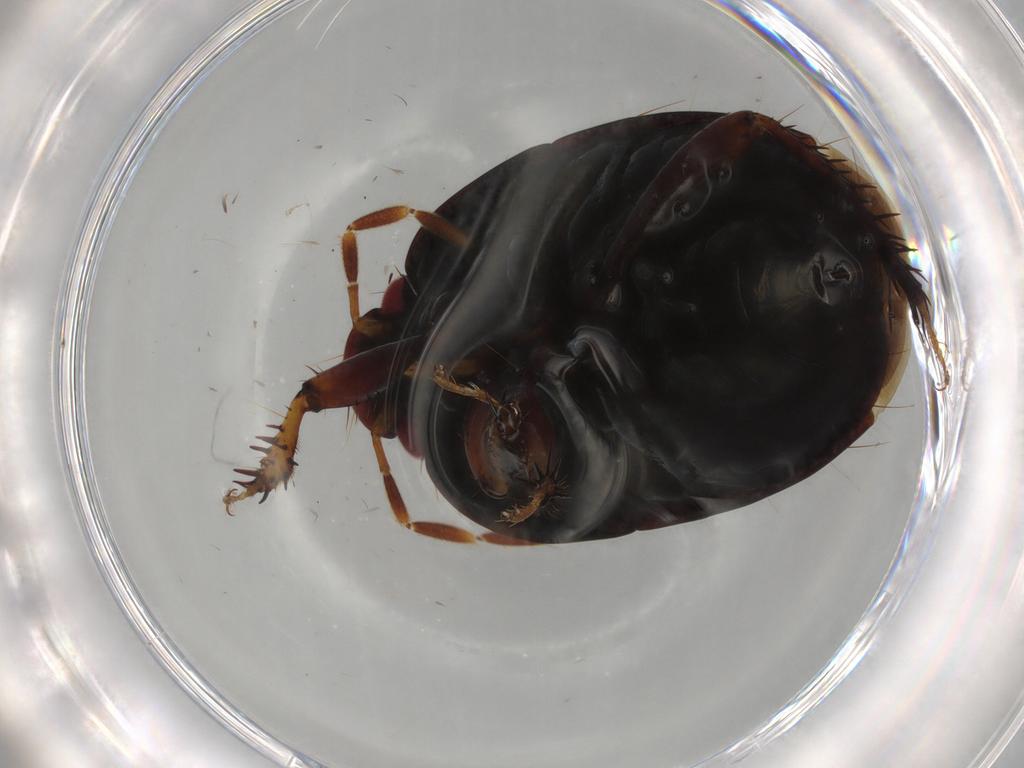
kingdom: Animalia
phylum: Arthropoda
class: Insecta
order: Hemiptera
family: Cydnidae
